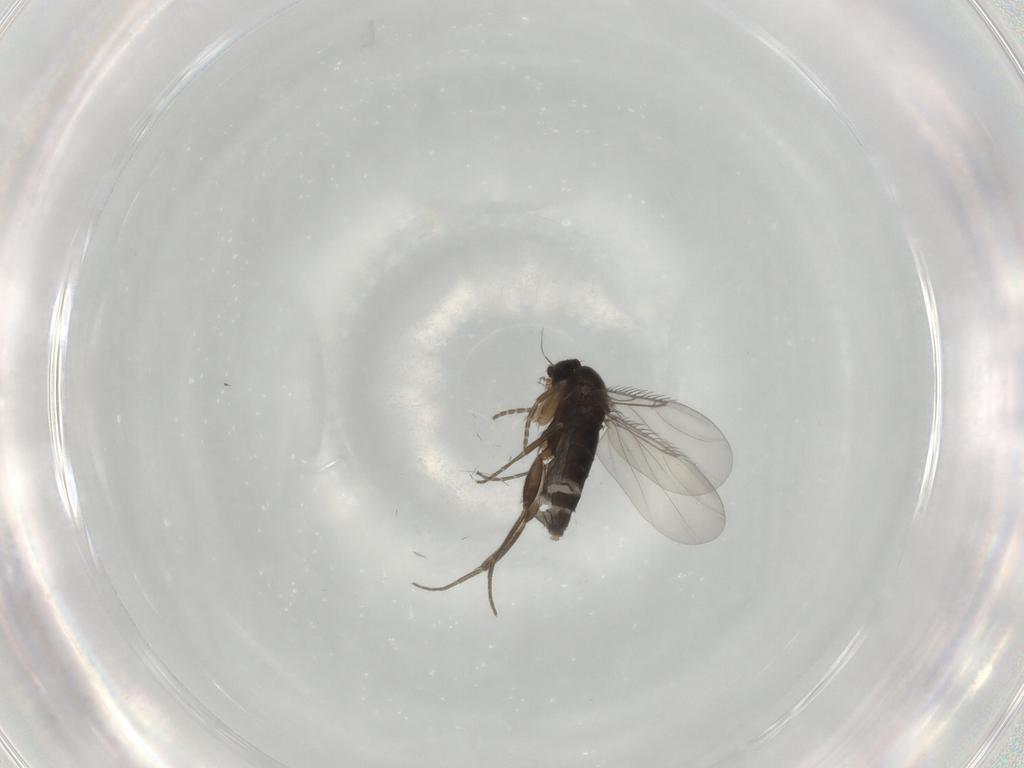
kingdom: Animalia
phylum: Arthropoda
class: Insecta
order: Diptera
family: Phoridae
